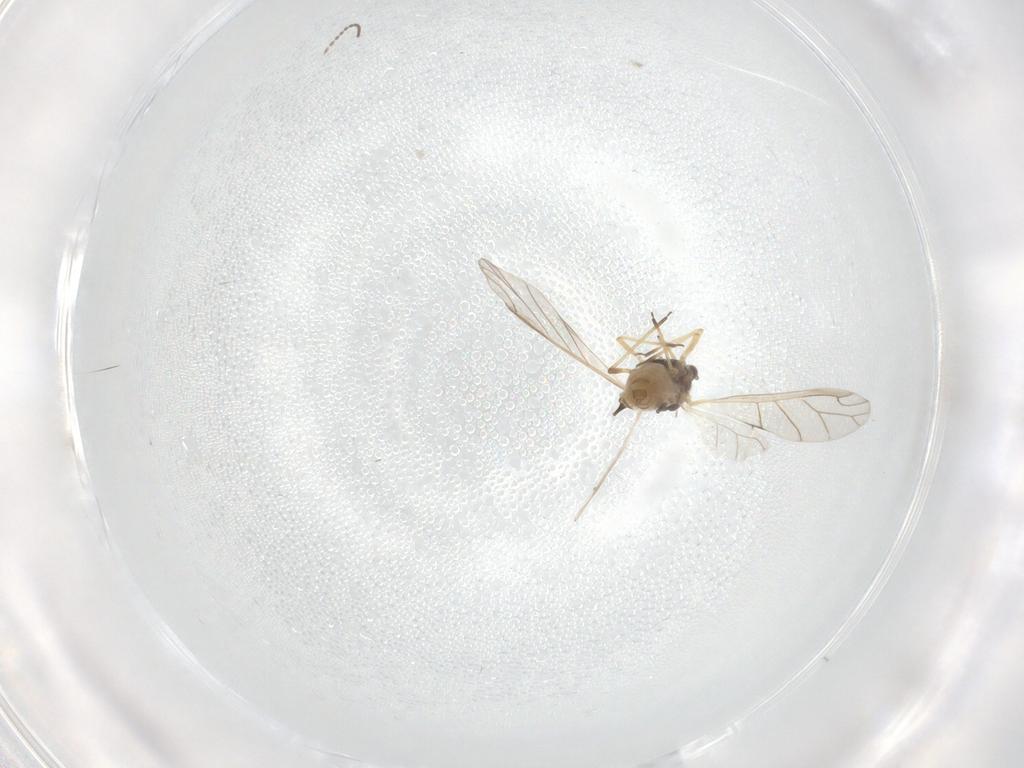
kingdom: Animalia
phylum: Arthropoda
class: Insecta
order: Hemiptera
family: Aphididae
